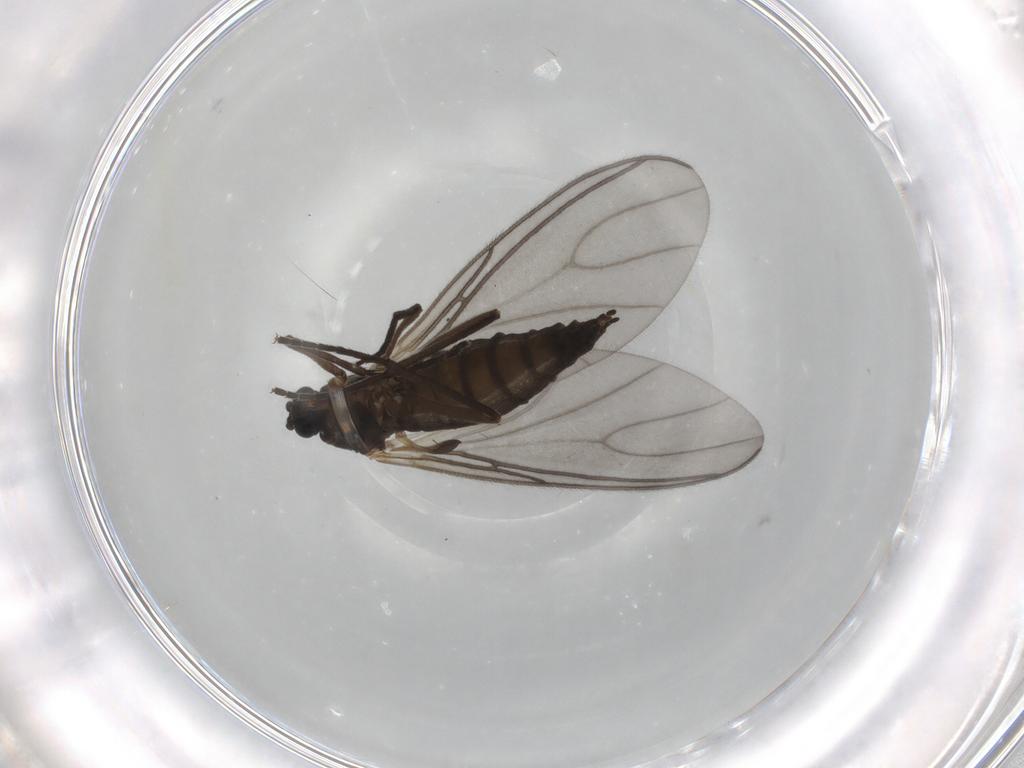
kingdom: Animalia
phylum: Arthropoda
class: Insecta
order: Diptera
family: Sciaridae
